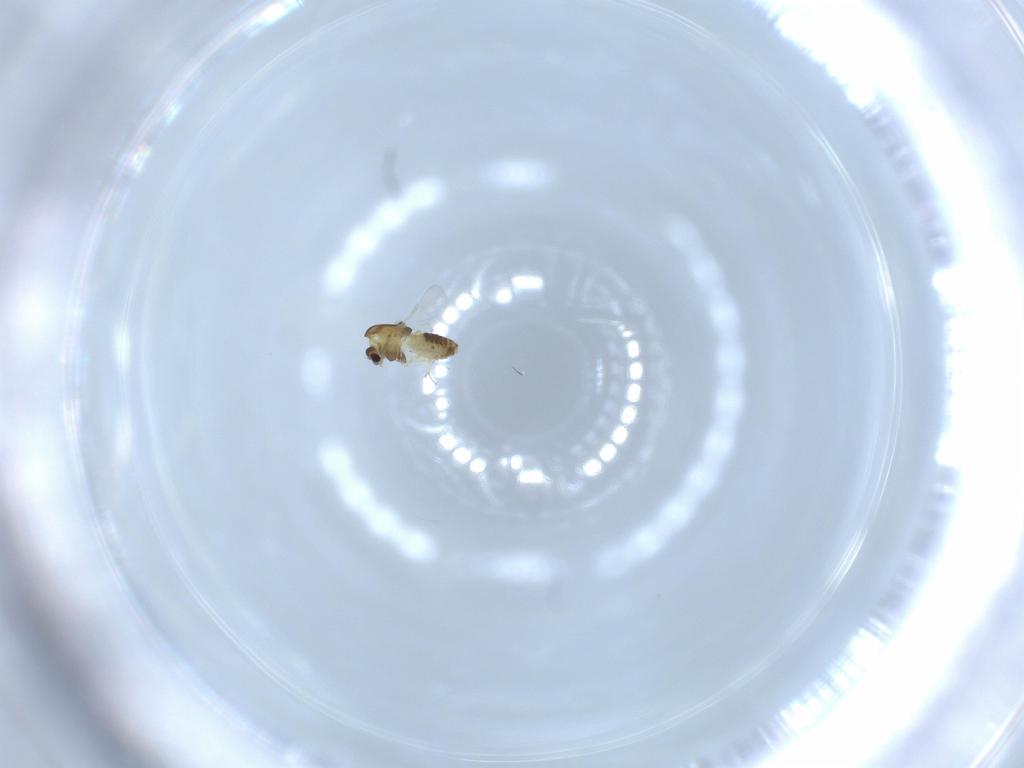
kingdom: Animalia
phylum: Arthropoda
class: Insecta
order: Diptera
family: Chironomidae
